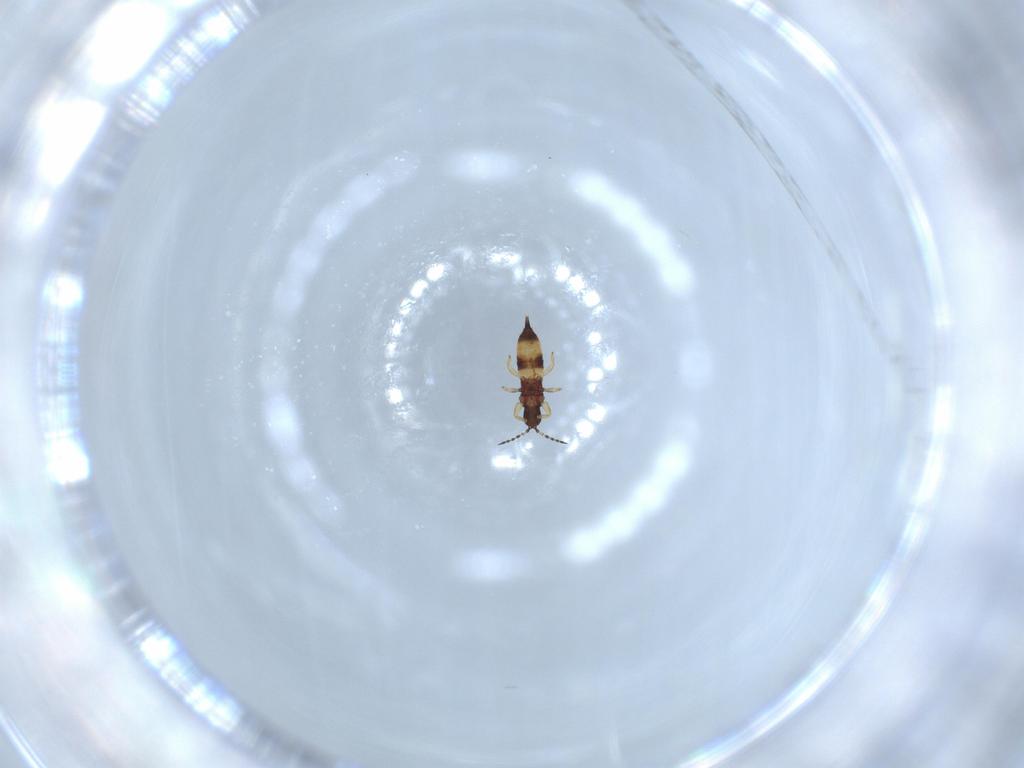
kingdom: Animalia
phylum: Arthropoda
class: Insecta
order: Thysanoptera
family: Phlaeothripidae
